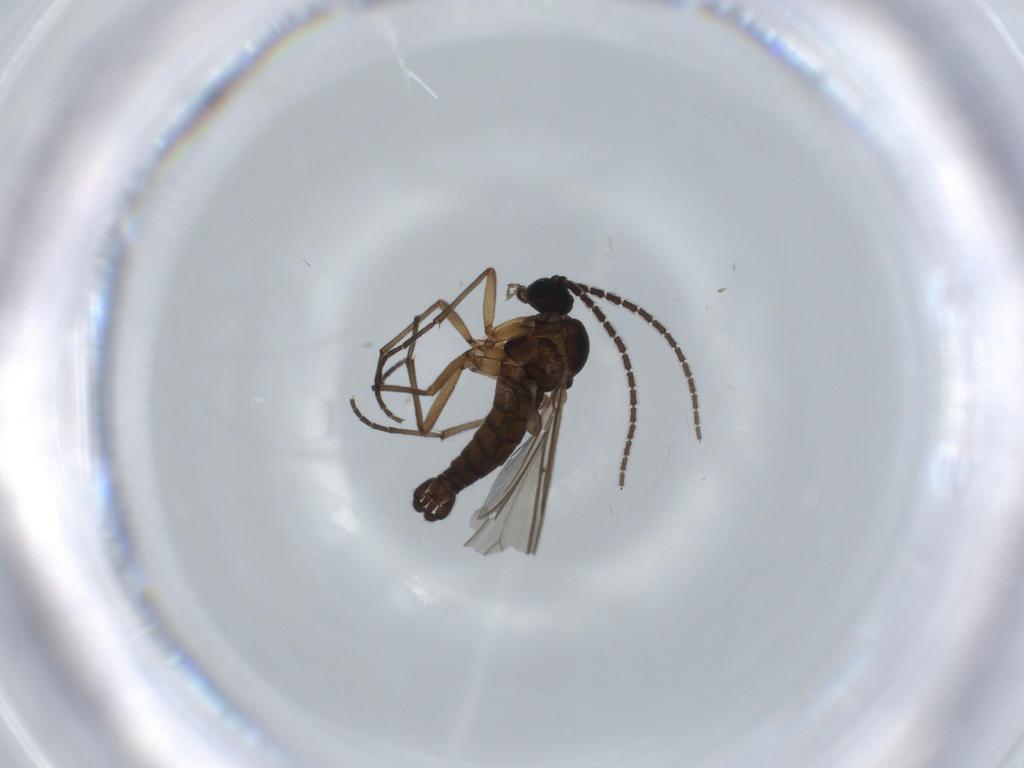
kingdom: Animalia
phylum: Arthropoda
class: Insecta
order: Diptera
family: Sciaridae
